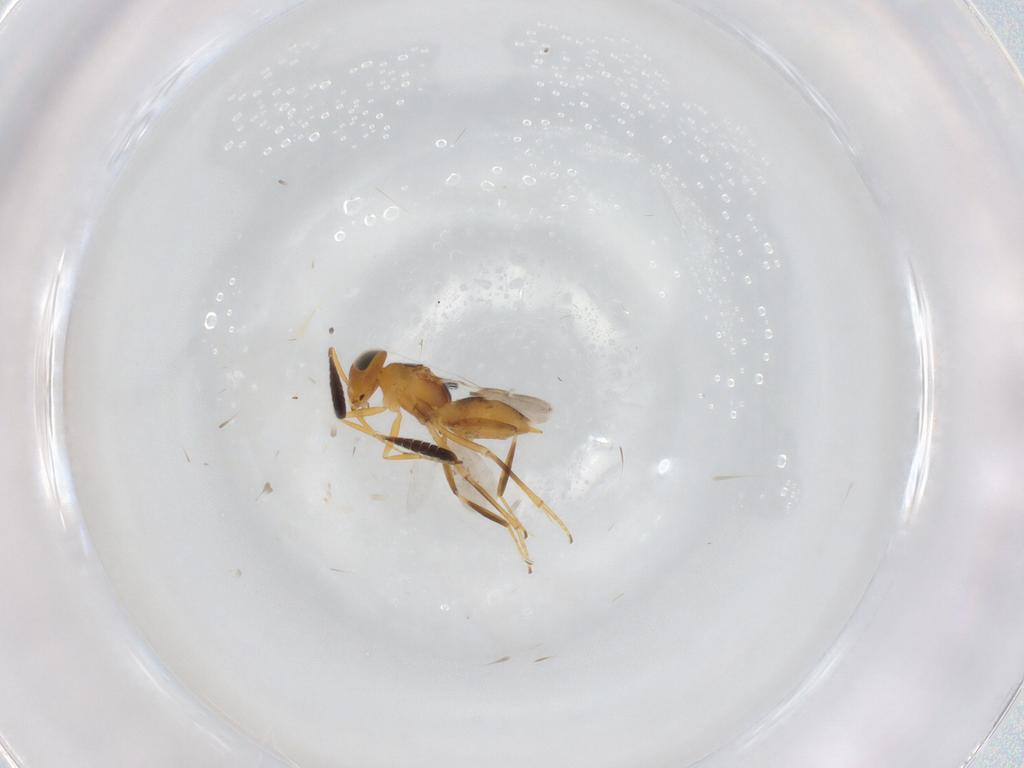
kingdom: Animalia
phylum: Arthropoda
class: Insecta
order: Hymenoptera
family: Encyrtidae
